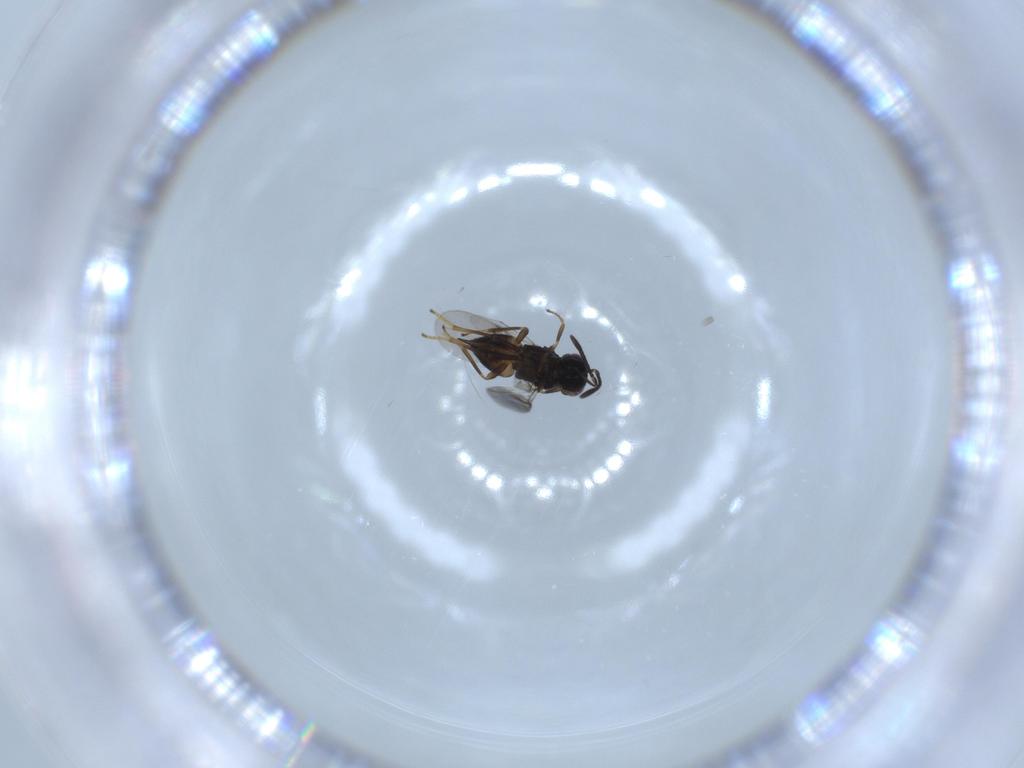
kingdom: Animalia
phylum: Arthropoda
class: Insecta
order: Hymenoptera
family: Encyrtidae
